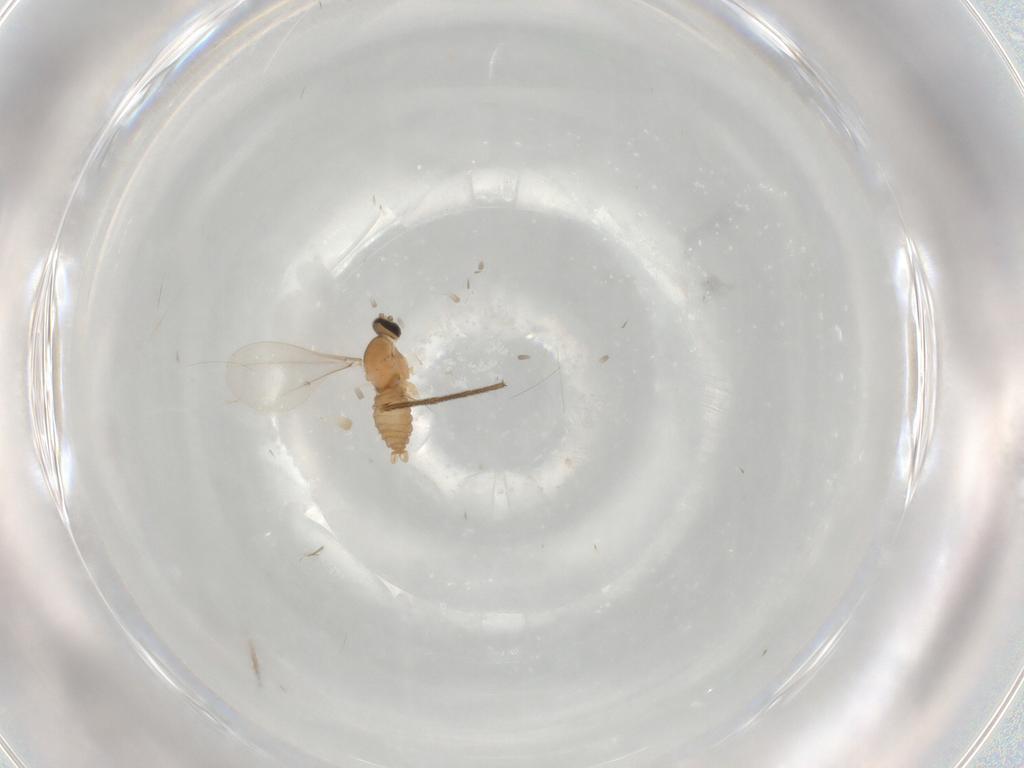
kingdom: Animalia
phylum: Arthropoda
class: Insecta
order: Diptera
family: Cecidomyiidae
